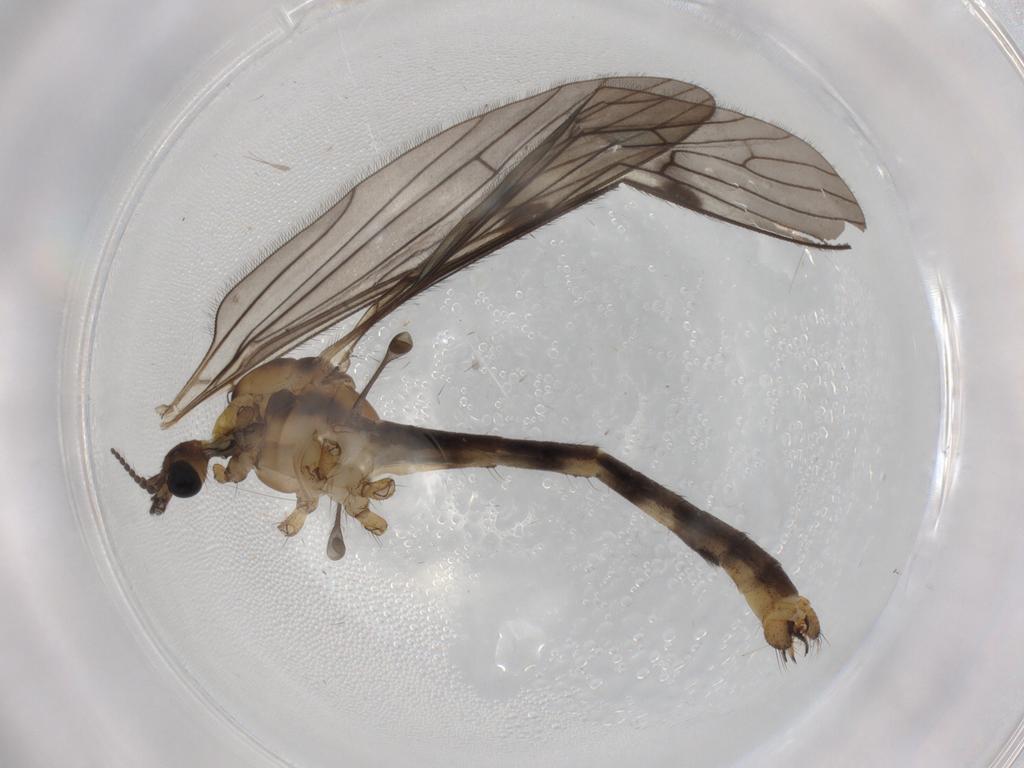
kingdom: Animalia
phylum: Arthropoda
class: Insecta
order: Diptera
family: Limoniidae
